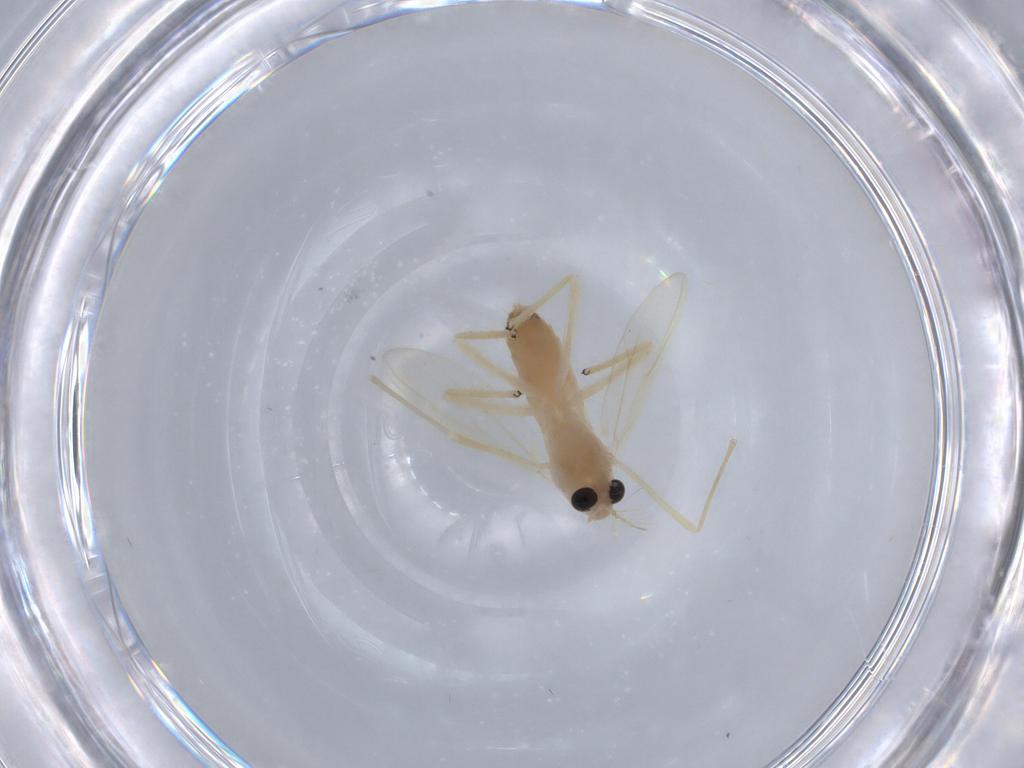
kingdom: Animalia
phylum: Arthropoda
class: Insecta
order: Diptera
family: Chironomidae
